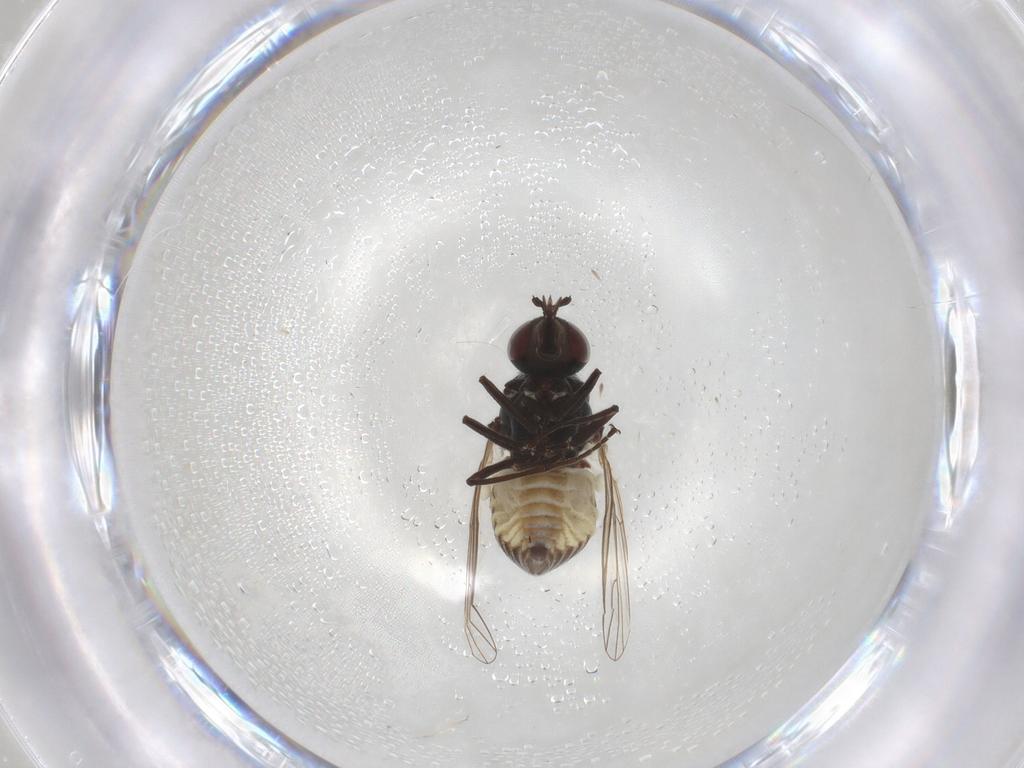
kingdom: Animalia
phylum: Arthropoda
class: Insecta
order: Diptera
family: Bombyliidae
